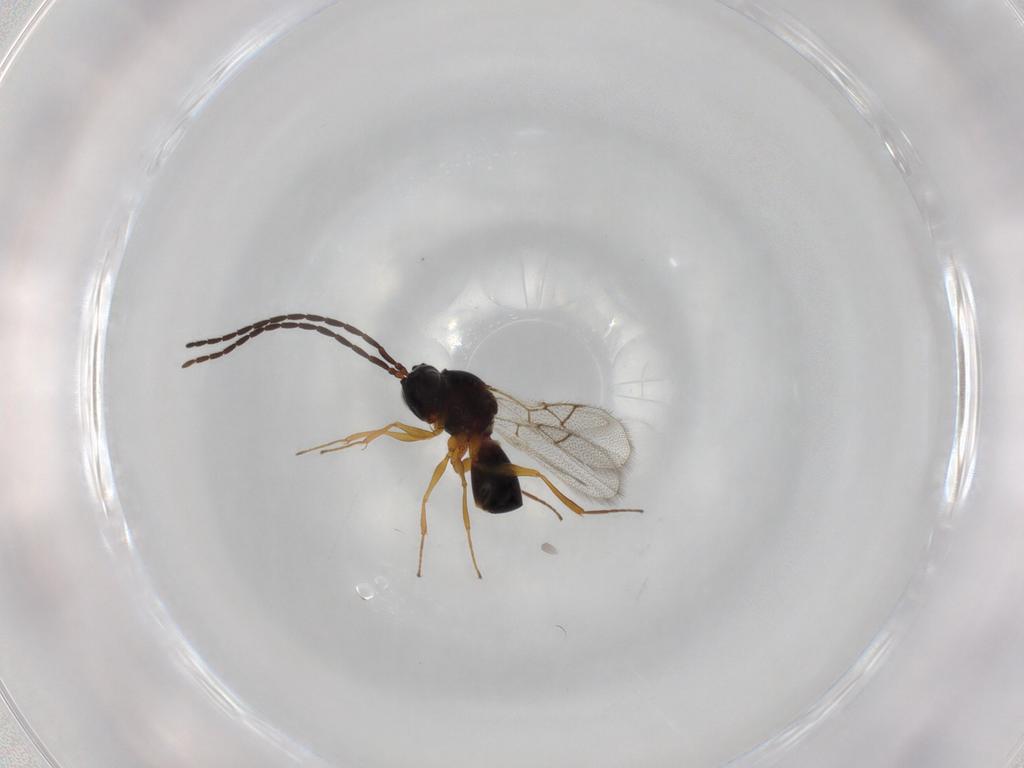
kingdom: Animalia
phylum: Arthropoda
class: Insecta
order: Hymenoptera
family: Figitidae
